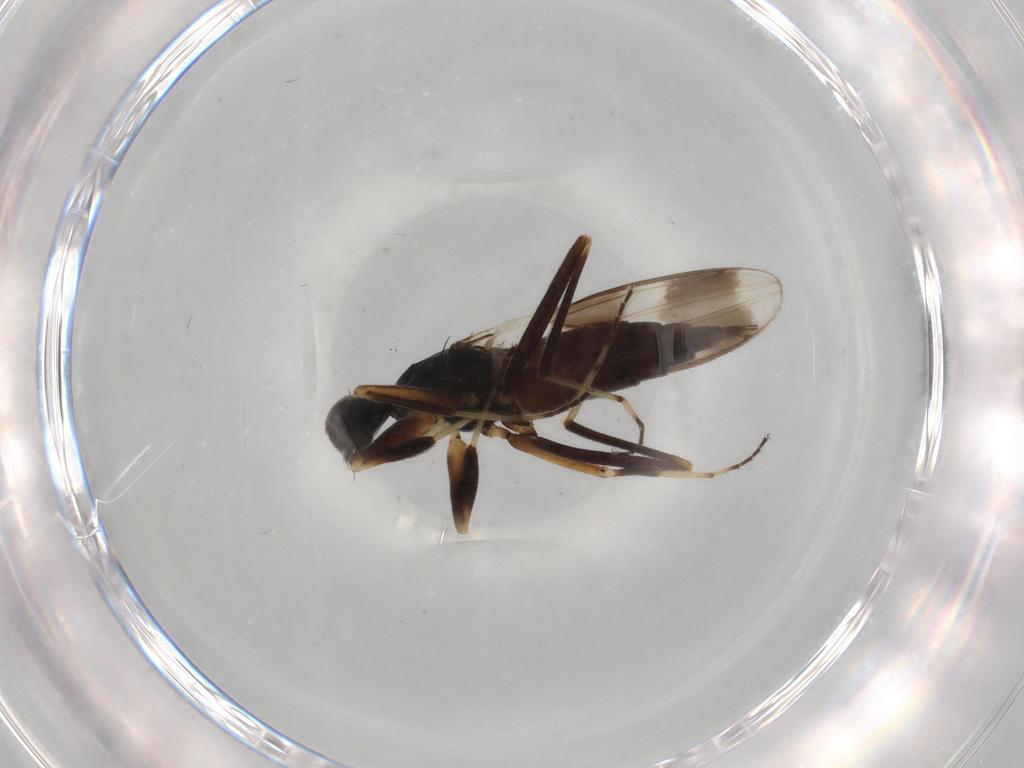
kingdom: Animalia
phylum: Arthropoda
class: Insecta
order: Diptera
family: Hybotidae
